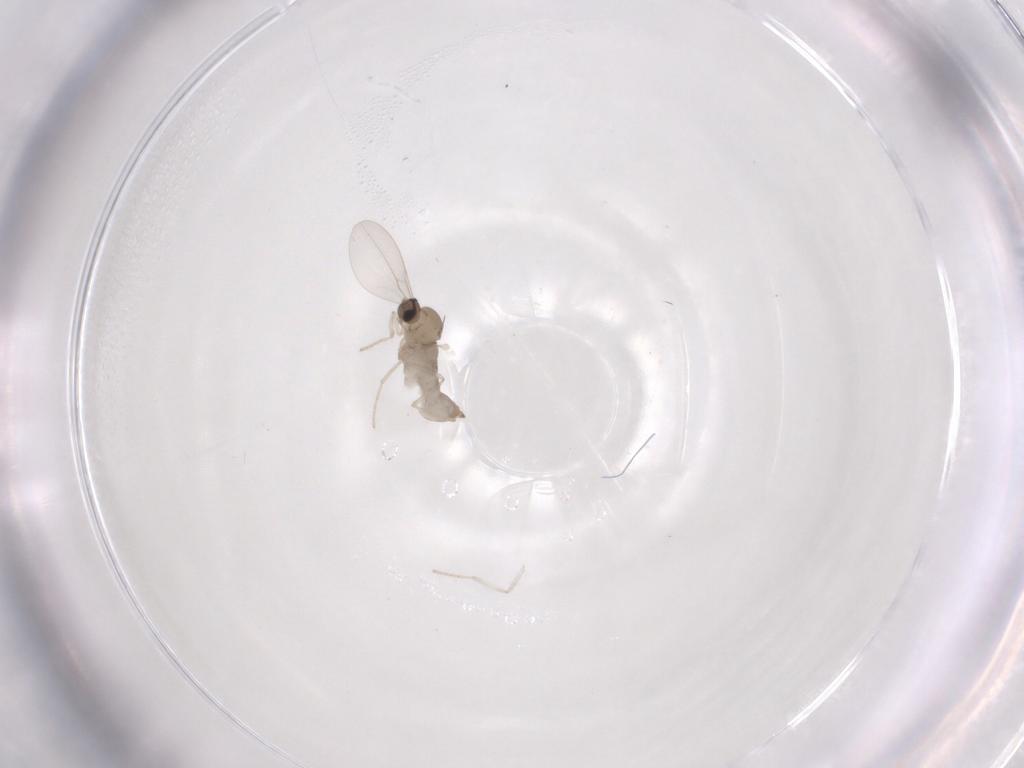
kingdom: Animalia
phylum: Arthropoda
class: Insecta
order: Diptera
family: Cecidomyiidae
